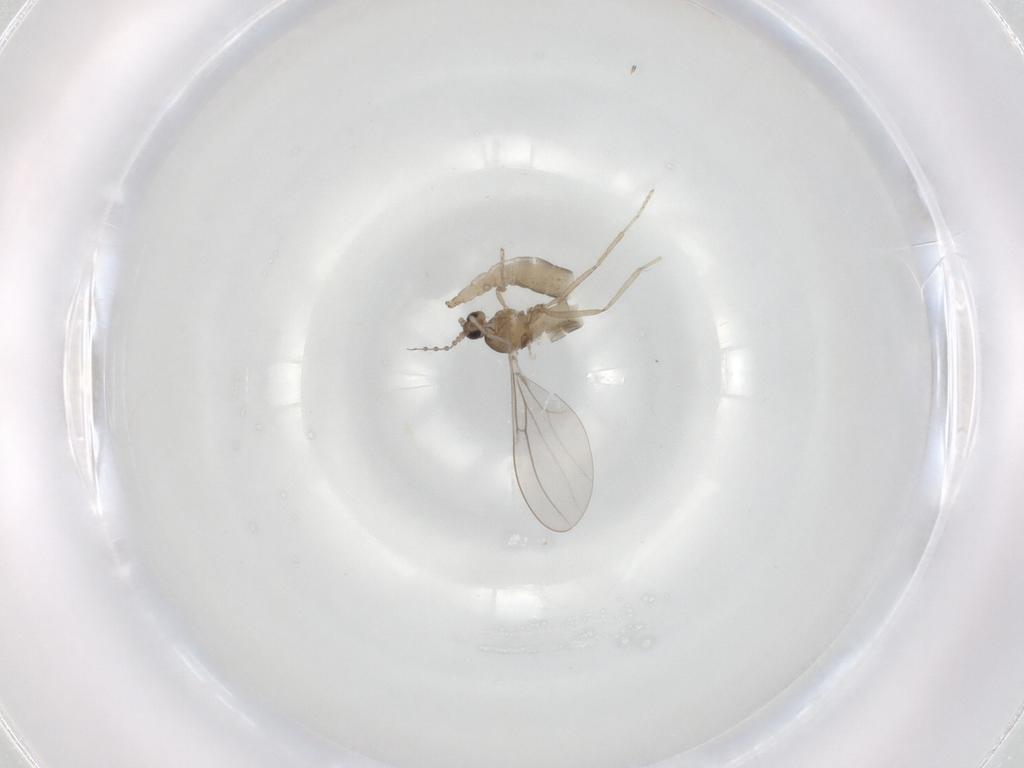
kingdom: Animalia
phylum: Arthropoda
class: Insecta
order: Diptera
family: Cecidomyiidae
